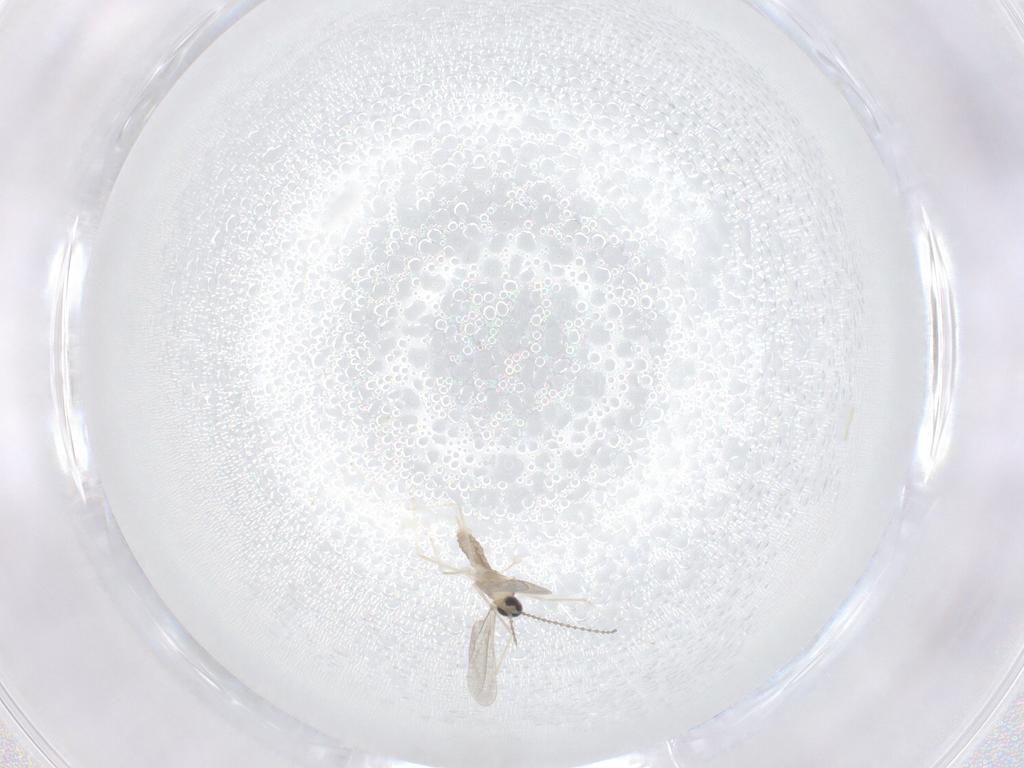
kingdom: Animalia
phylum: Arthropoda
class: Insecta
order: Diptera
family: Cecidomyiidae
